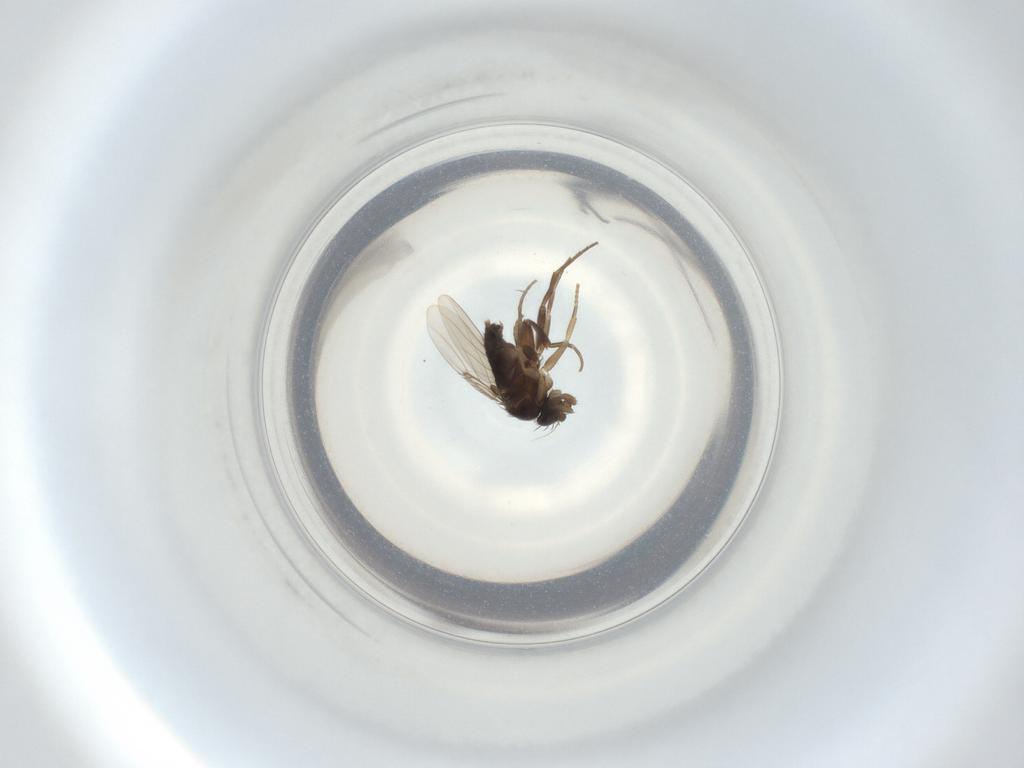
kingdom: Animalia
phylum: Arthropoda
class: Insecta
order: Diptera
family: Phoridae
